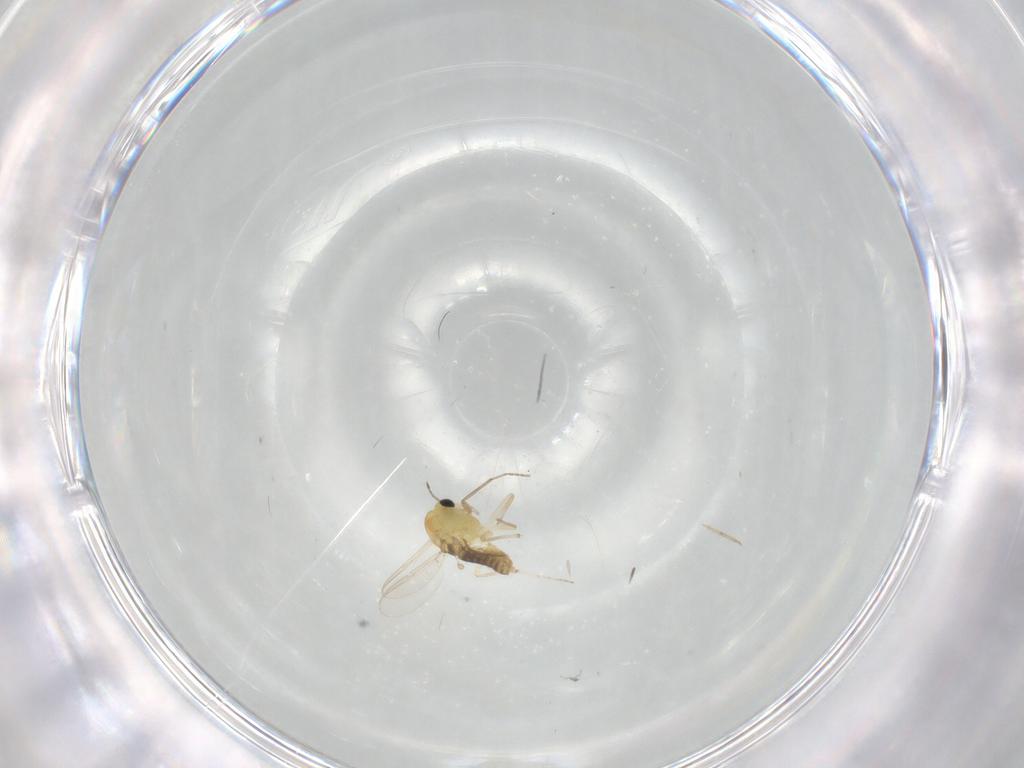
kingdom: Animalia
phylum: Arthropoda
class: Insecta
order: Diptera
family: Chironomidae
